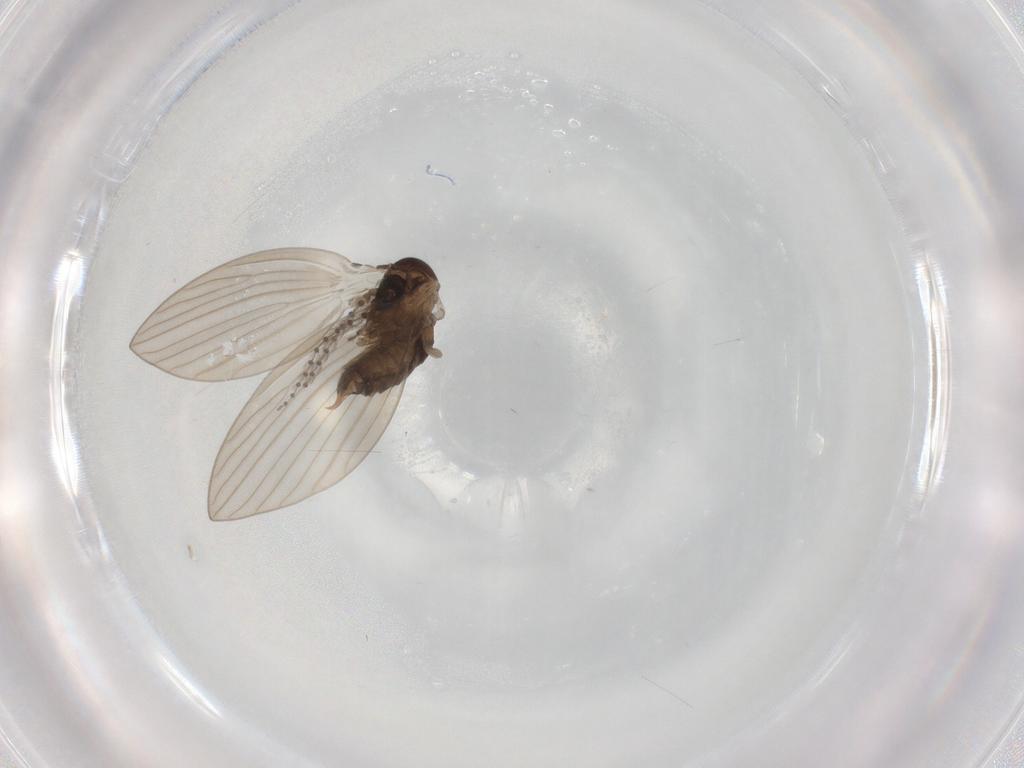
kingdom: Animalia
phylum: Arthropoda
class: Insecta
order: Diptera
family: Psychodidae
